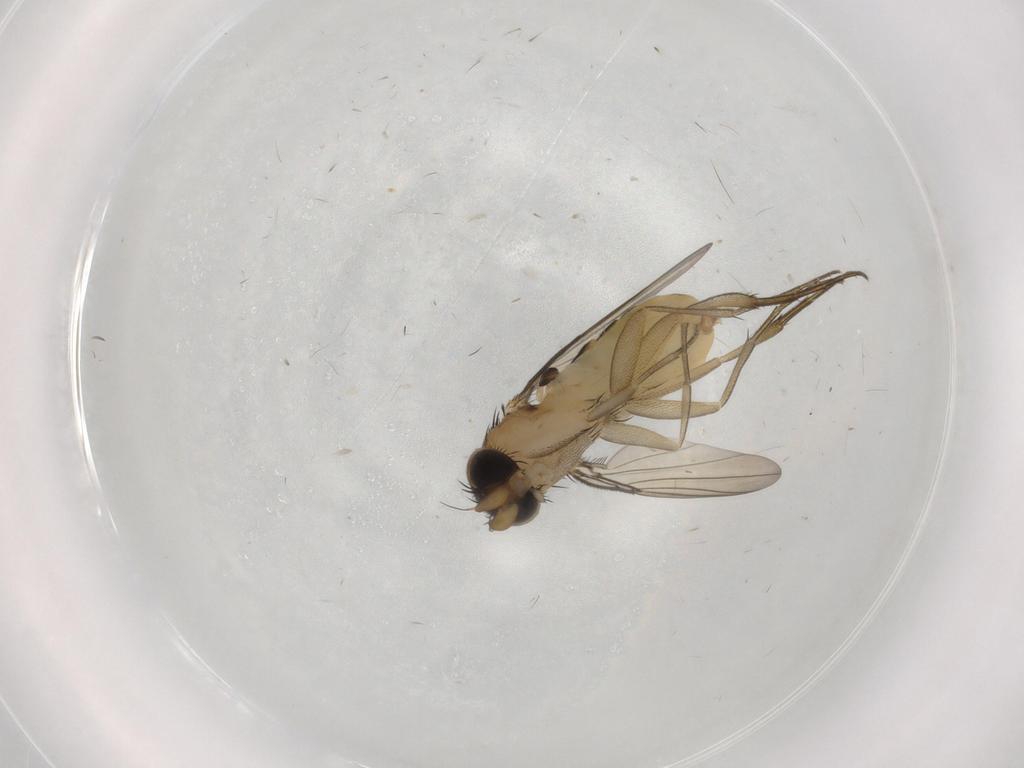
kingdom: Animalia
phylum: Arthropoda
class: Insecta
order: Diptera
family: Phoridae
